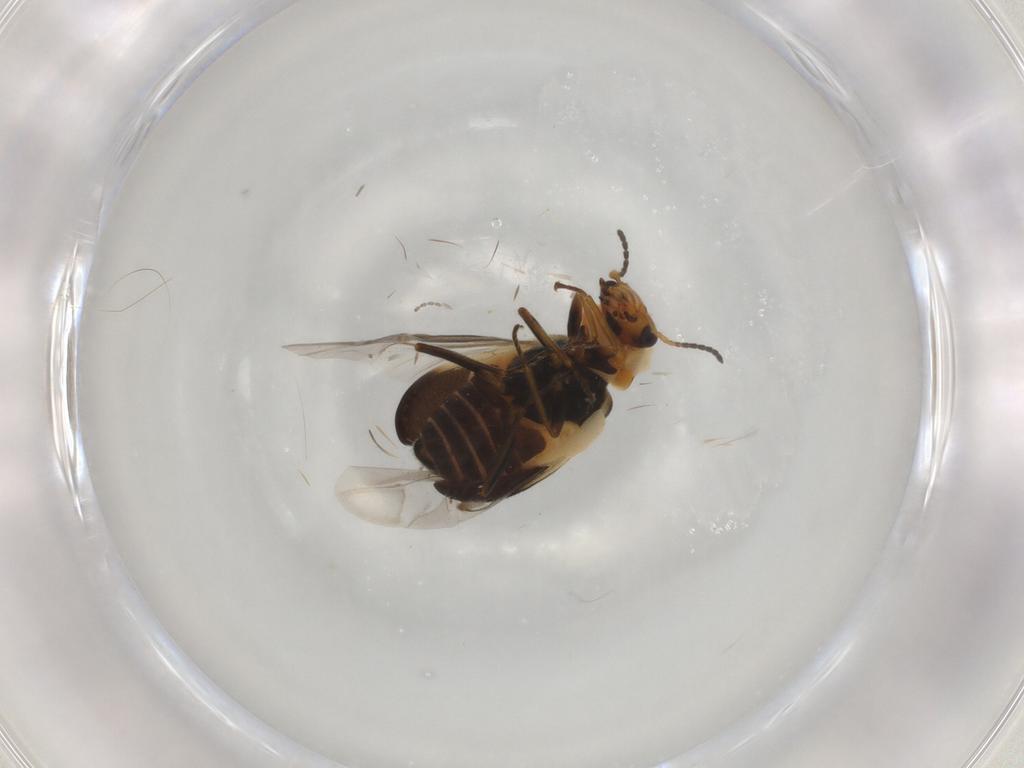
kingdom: Animalia
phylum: Arthropoda
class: Insecta
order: Coleoptera
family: Melyridae
